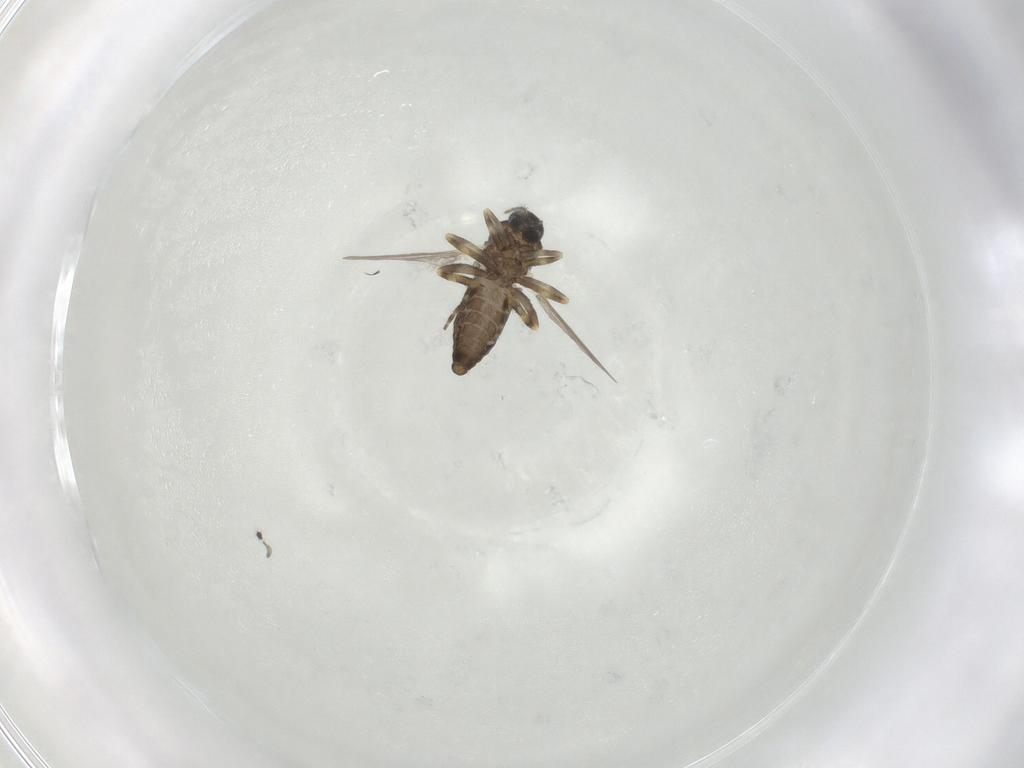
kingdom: Animalia
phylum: Arthropoda
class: Insecta
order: Diptera
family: Ceratopogonidae
